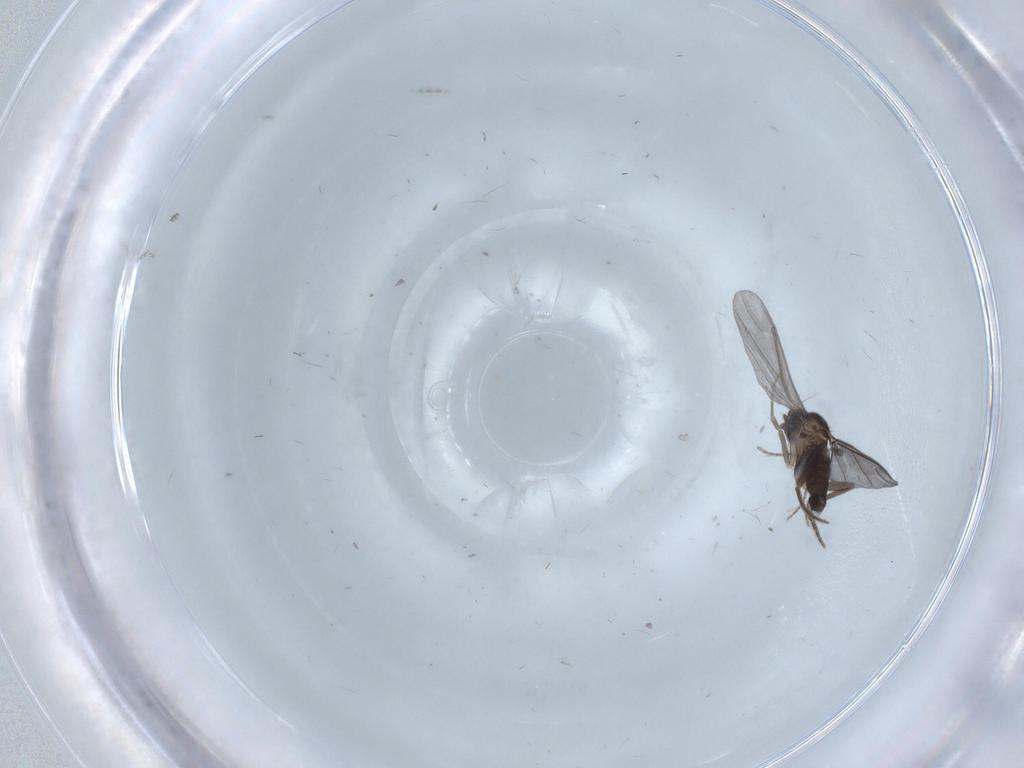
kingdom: Animalia
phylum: Arthropoda
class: Insecta
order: Diptera
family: Phoridae
